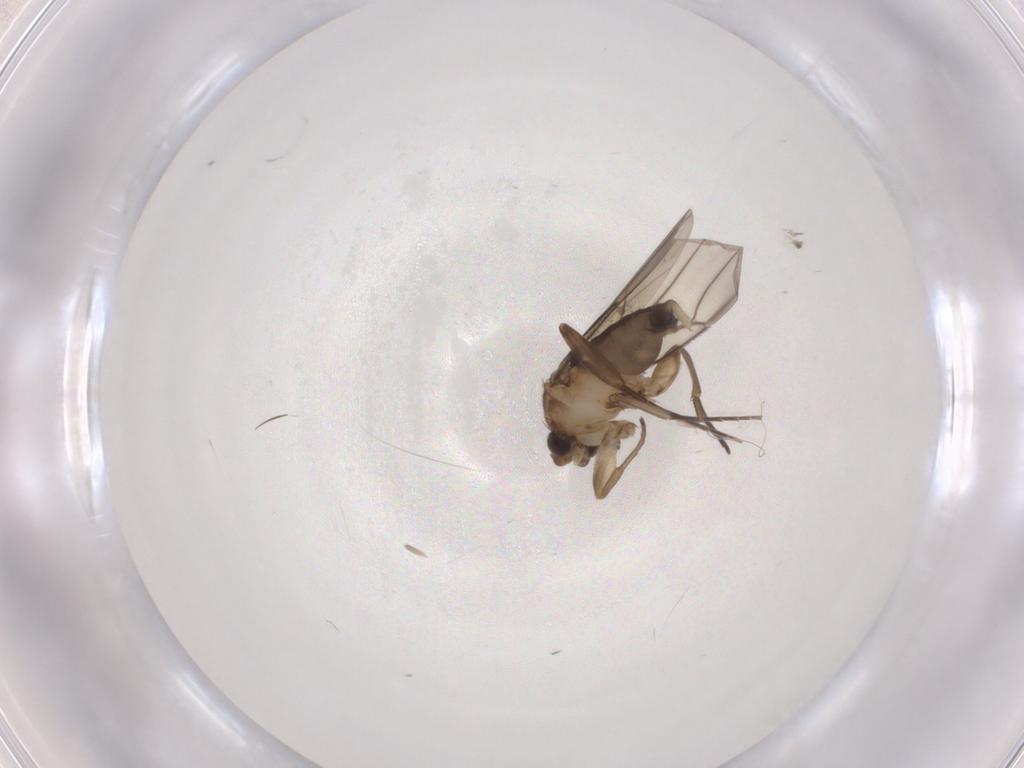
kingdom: Animalia
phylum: Arthropoda
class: Insecta
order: Diptera
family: Phoridae
